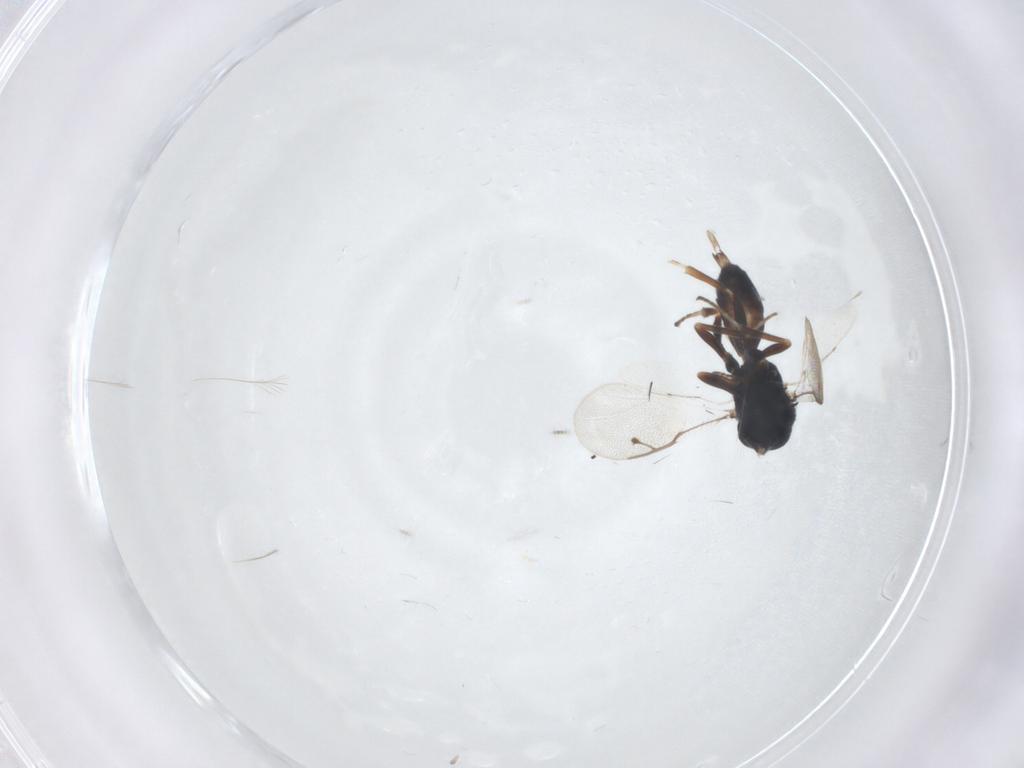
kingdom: Animalia
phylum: Arthropoda
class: Insecta
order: Hymenoptera
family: Pteromalidae
